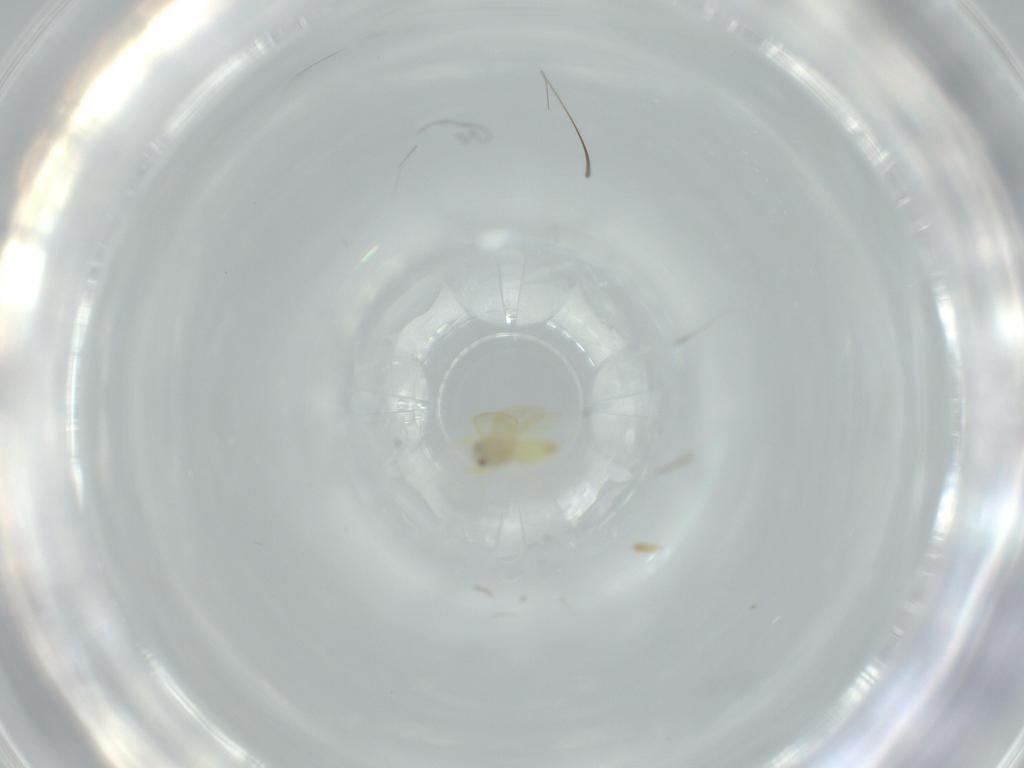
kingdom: Animalia
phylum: Arthropoda
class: Insecta
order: Hemiptera
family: Aleyrodidae
